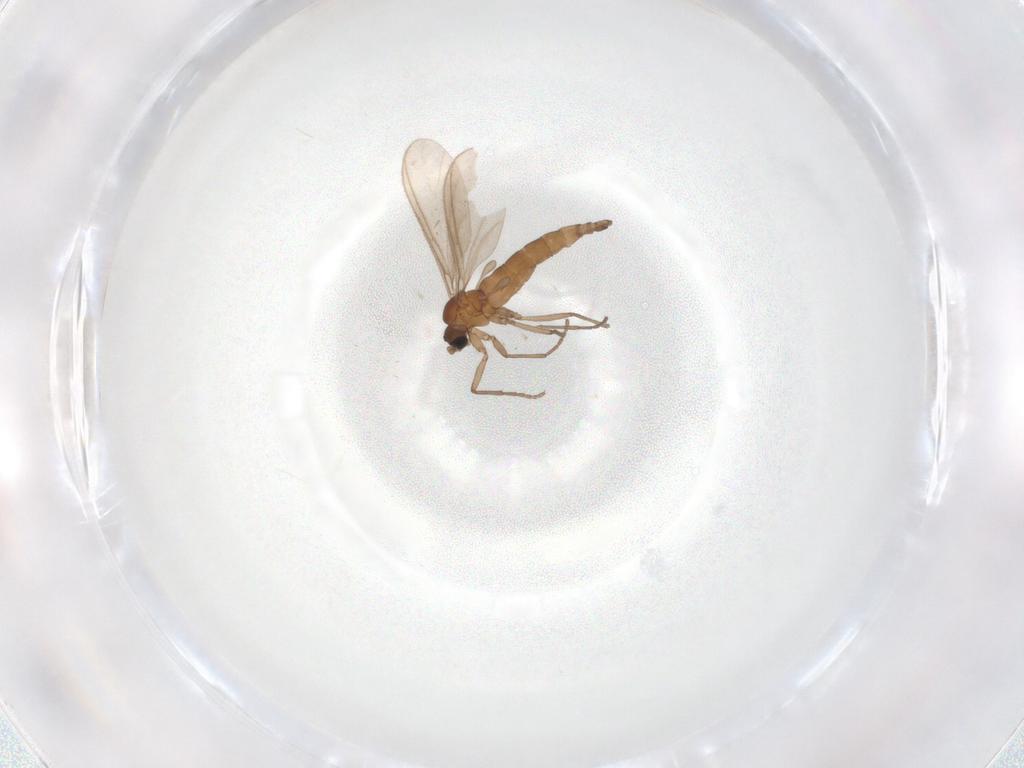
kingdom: Animalia
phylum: Arthropoda
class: Insecta
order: Diptera
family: Sciaridae
